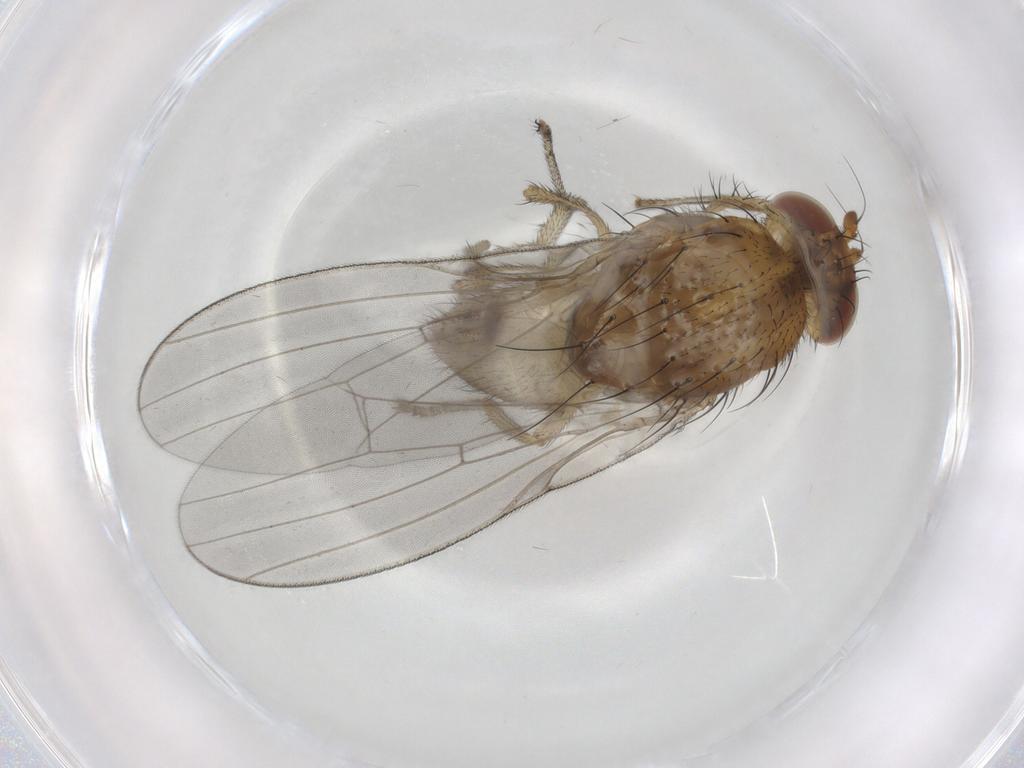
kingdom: Animalia
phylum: Arthropoda
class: Insecta
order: Diptera
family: Lauxaniidae
